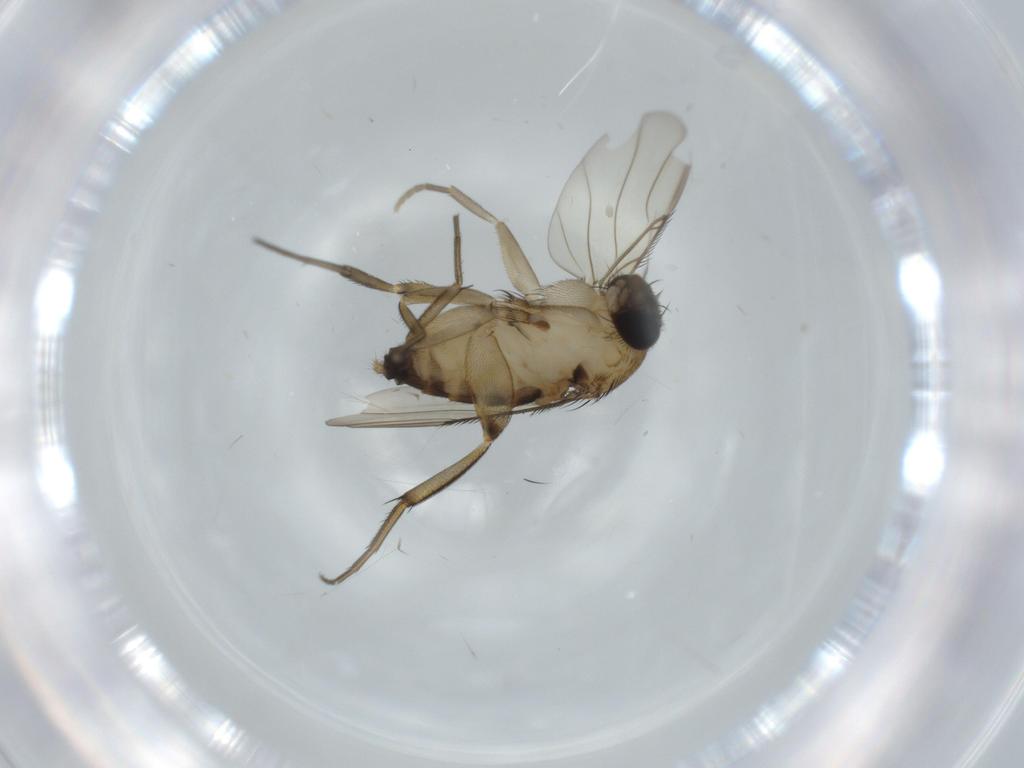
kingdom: Animalia
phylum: Arthropoda
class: Insecta
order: Diptera
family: Phoridae
